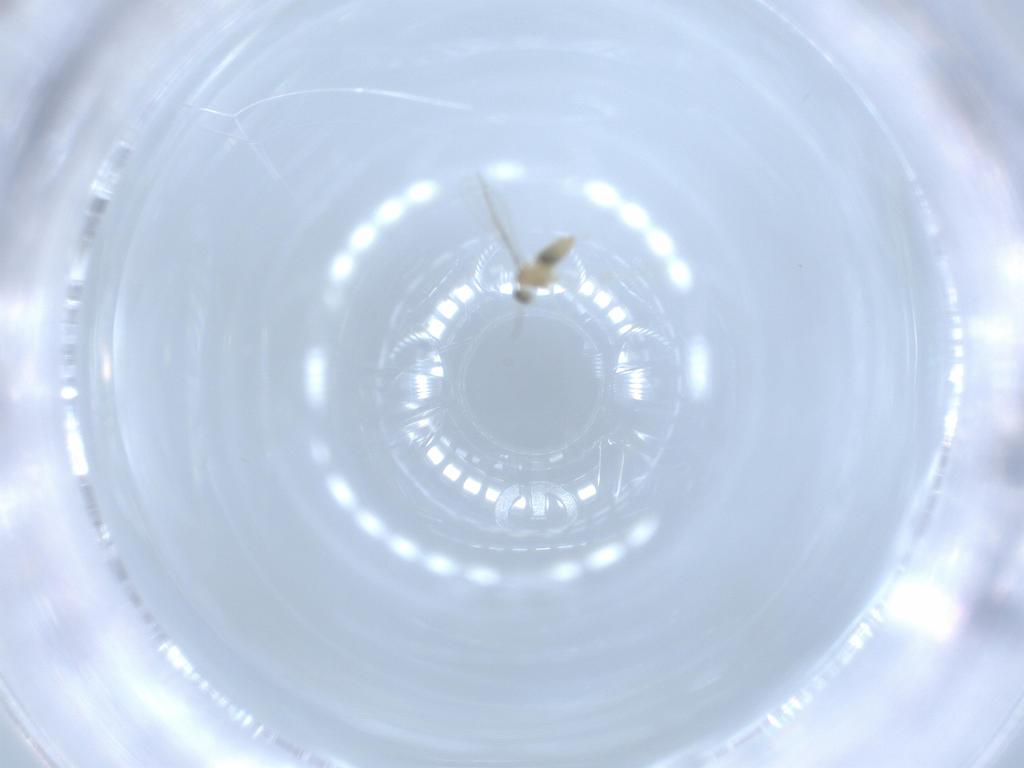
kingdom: Animalia
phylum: Arthropoda
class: Insecta
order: Diptera
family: Cecidomyiidae
